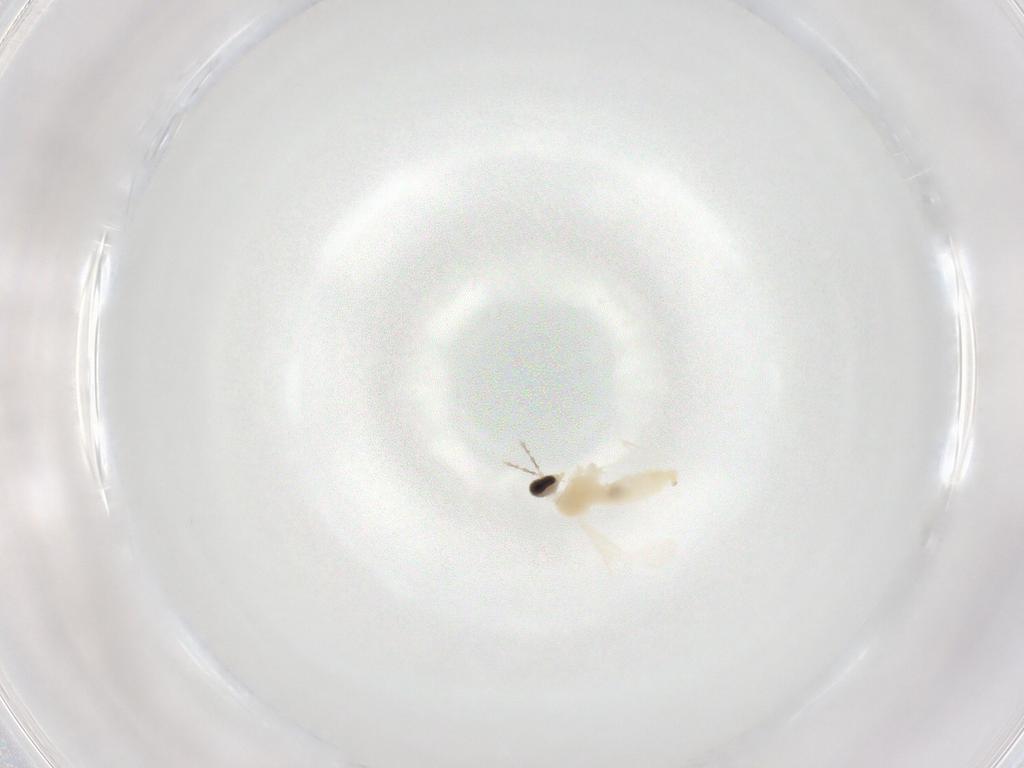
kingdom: Animalia
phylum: Arthropoda
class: Insecta
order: Diptera
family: Cecidomyiidae
